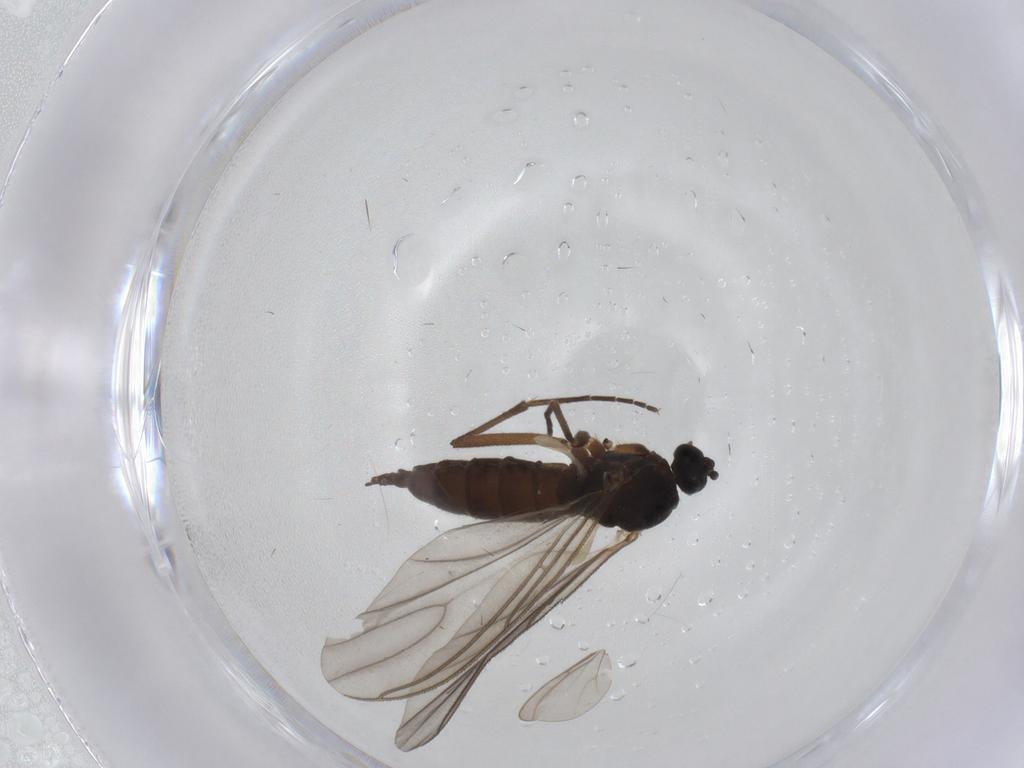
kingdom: Animalia
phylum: Arthropoda
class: Insecta
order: Diptera
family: Sciaridae
